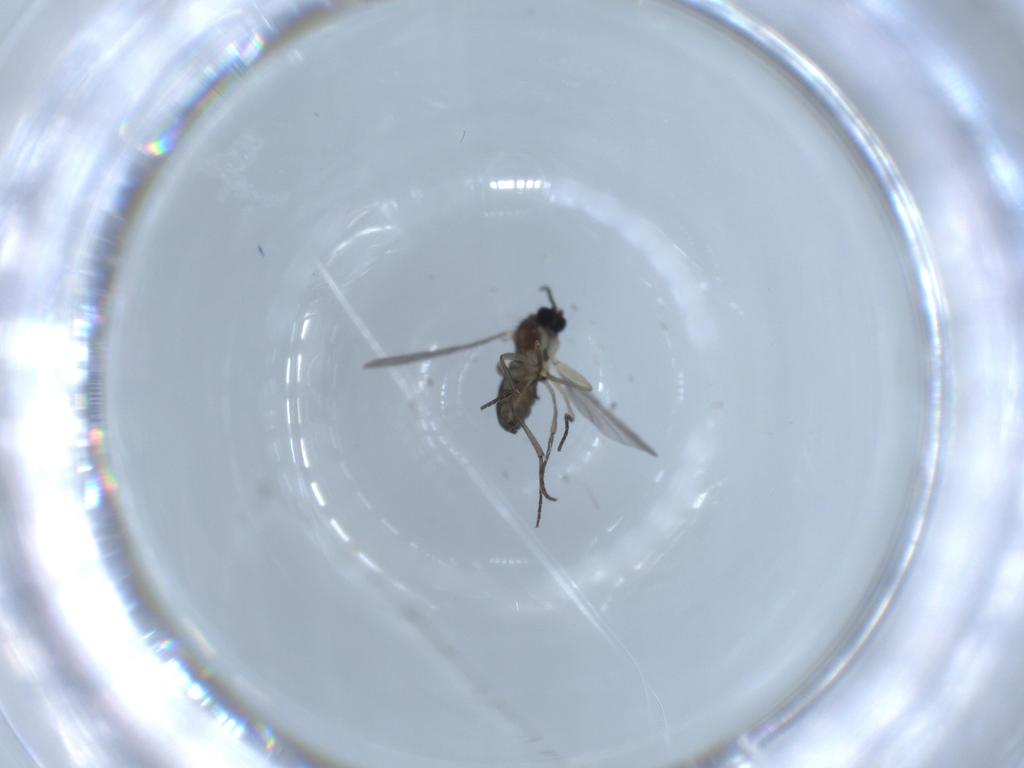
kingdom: Animalia
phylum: Arthropoda
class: Insecta
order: Diptera
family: Sciaridae
